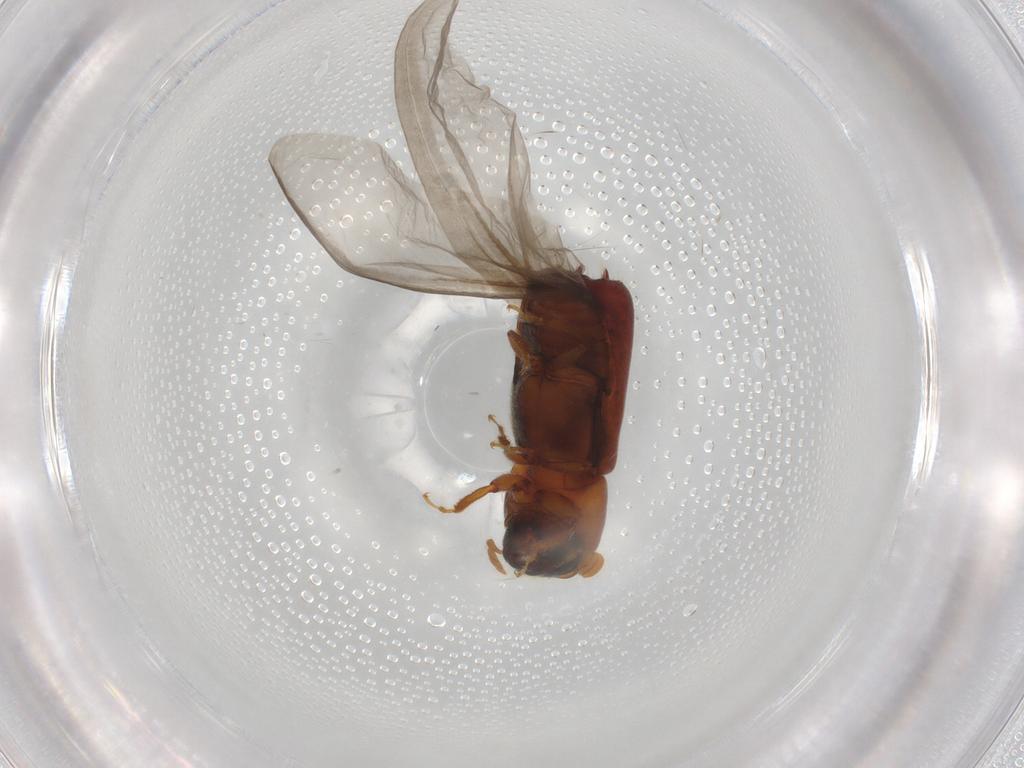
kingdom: Animalia
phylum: Arthropoda
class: Insecta
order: Coleoptera
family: Curculionidae
